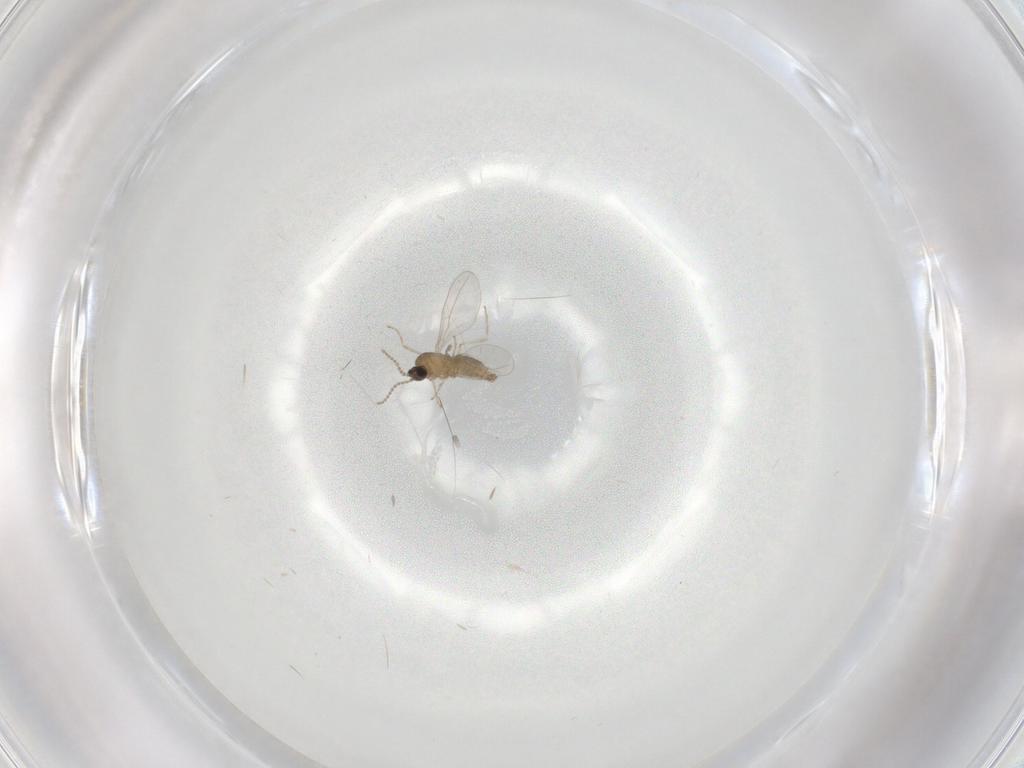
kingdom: Animalia
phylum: Arthropoda
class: Insecta
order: Diptera
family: Cecidomyiidae
